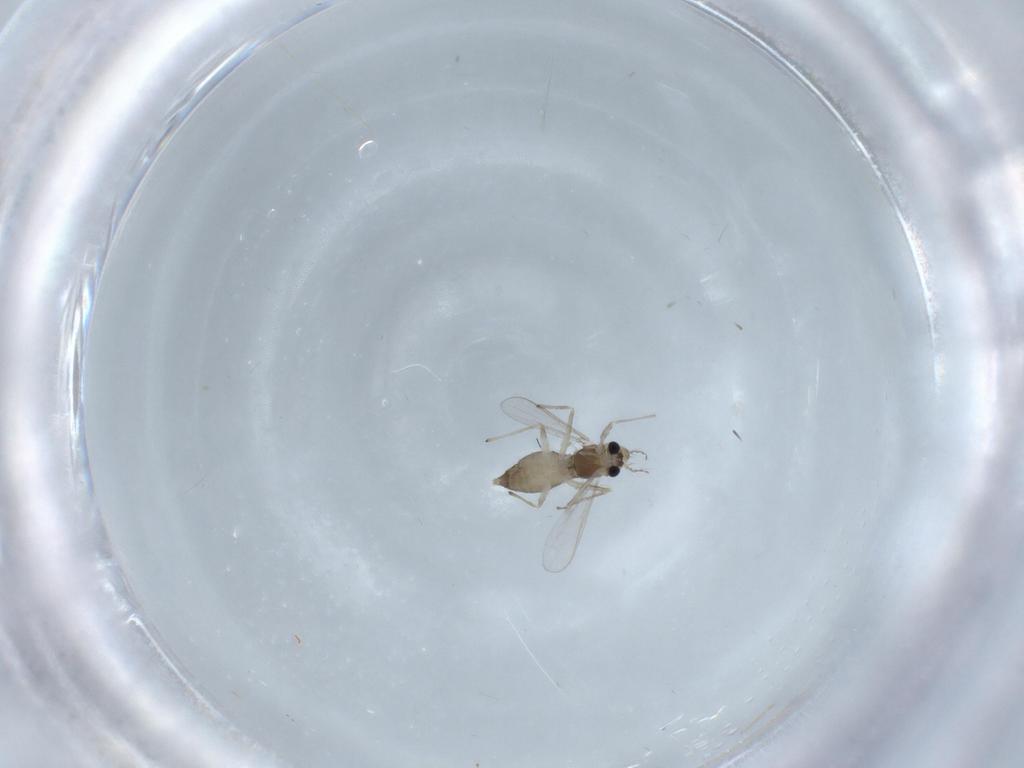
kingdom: Animalia
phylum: Arthropoda
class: Insecta
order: Diptera
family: Chironomidae
